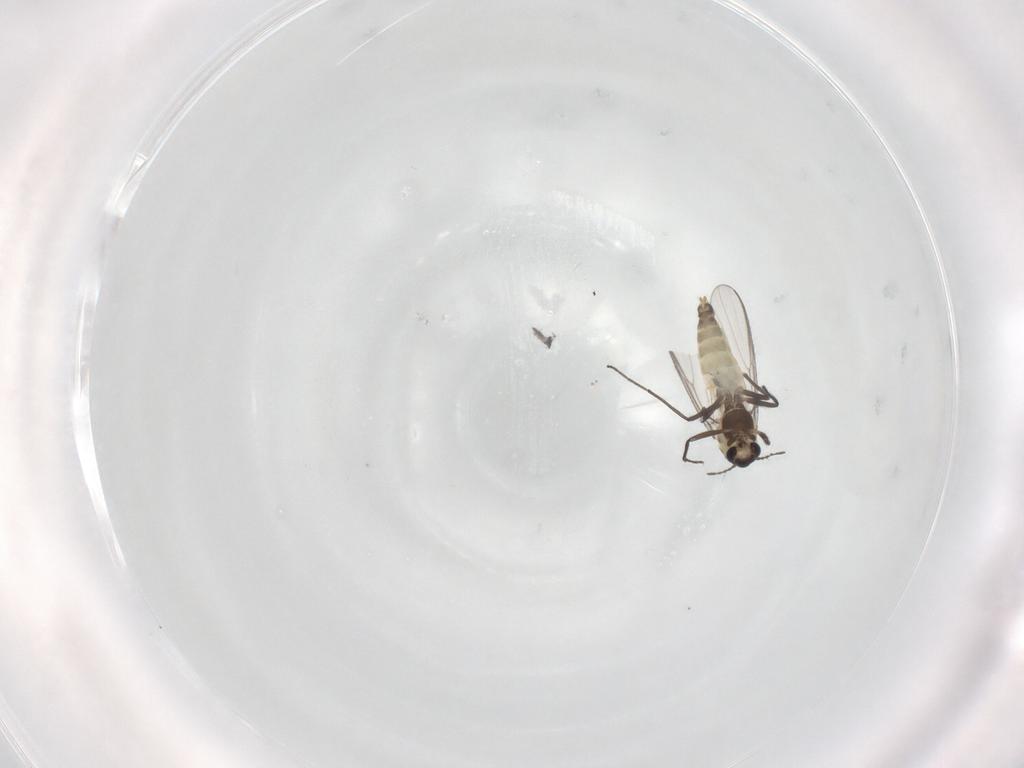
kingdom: Animalia
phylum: Arthropoda
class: Insecta
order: Diptera
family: Chironomidae
